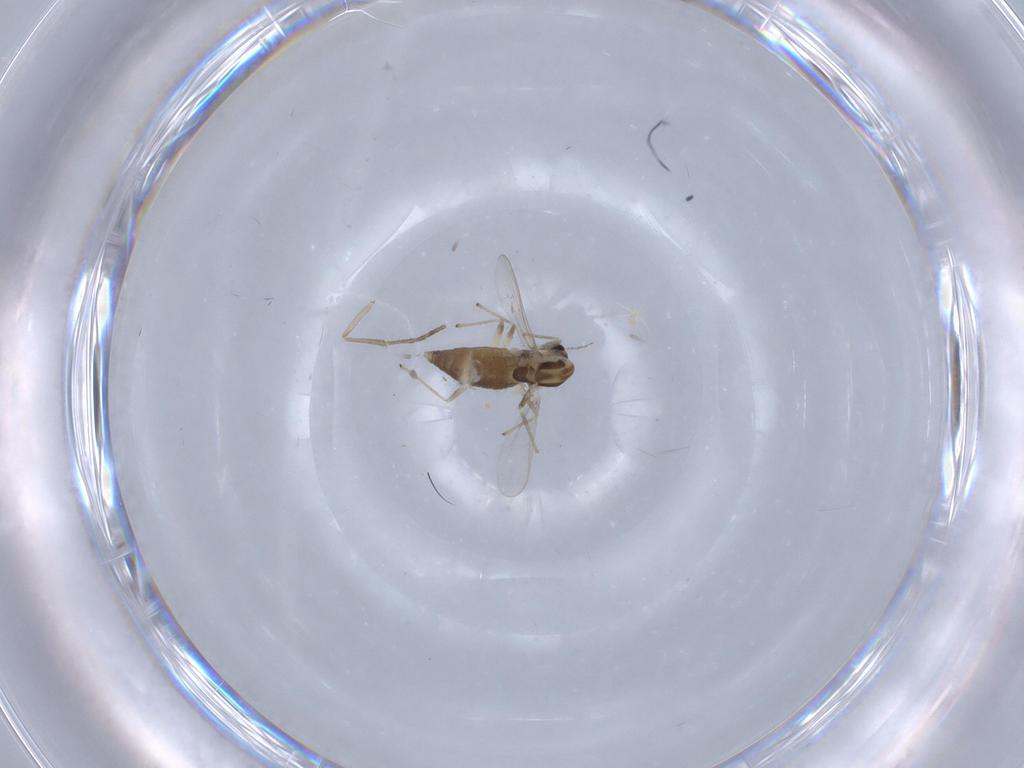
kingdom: Animalia
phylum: Arthropoda
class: Insecta
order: Diptera
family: Chironomidae
